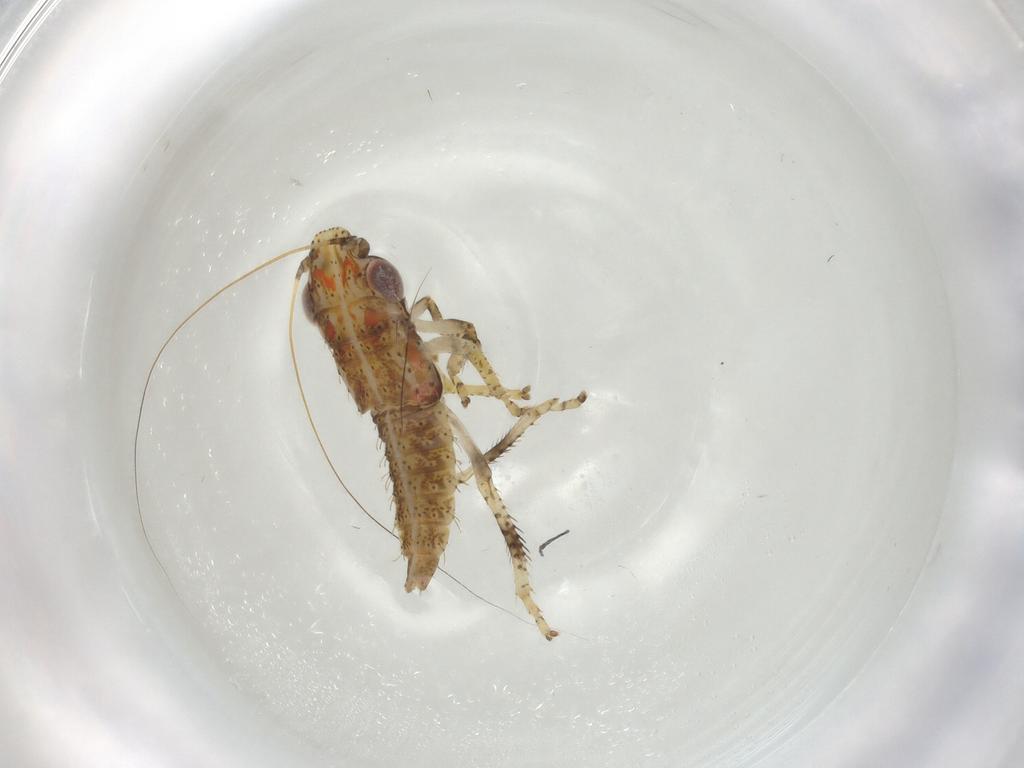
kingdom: Animalia
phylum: Arthropoda
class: Insecta
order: Hemiptera
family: Cicadellidae
